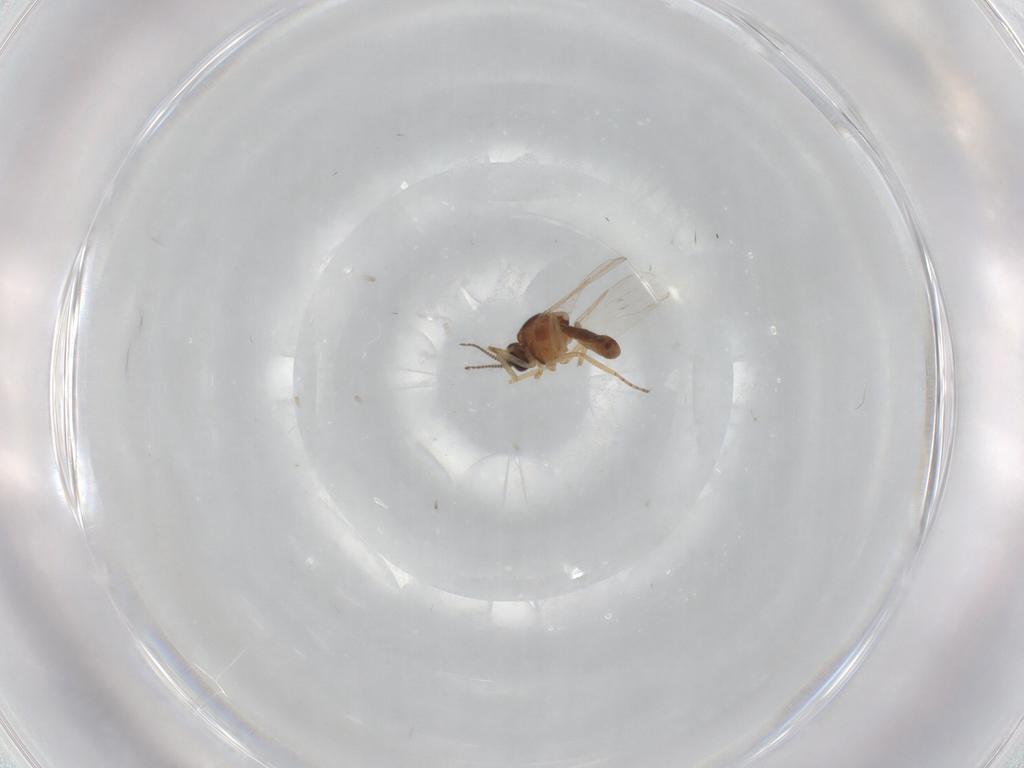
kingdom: Animalia
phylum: Arthropoda
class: Insecta
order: Diptera
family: Ceratopogonidae
